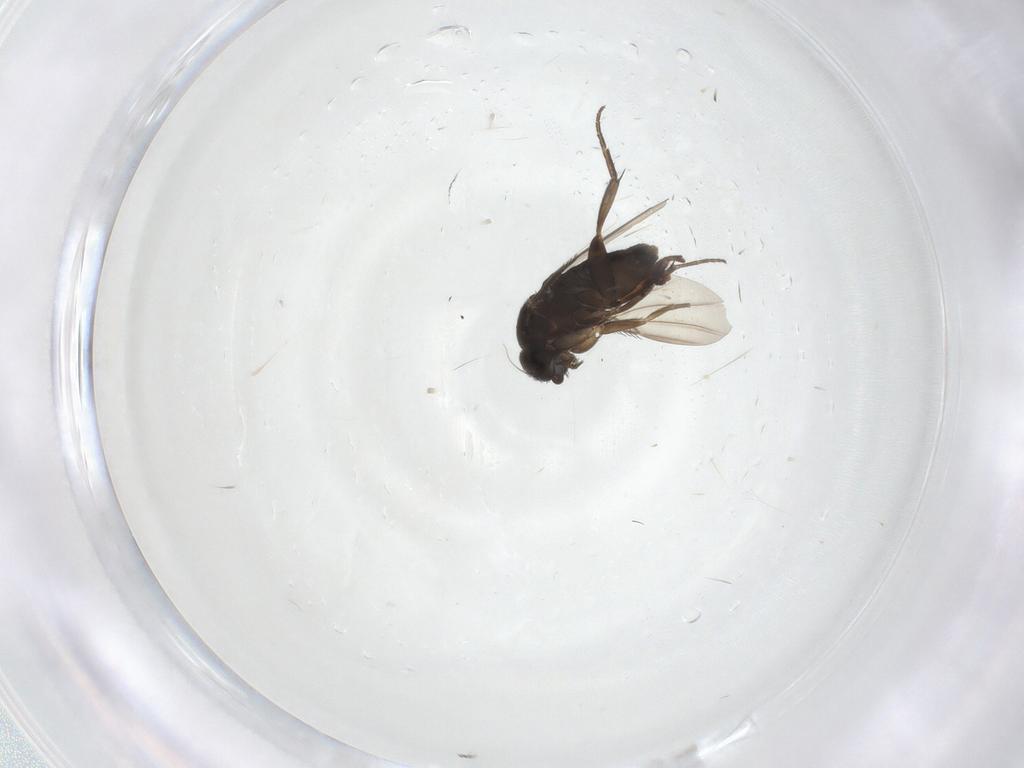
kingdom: Animalia
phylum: Arthropoda
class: Insecta
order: Diptera
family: Phoridae
